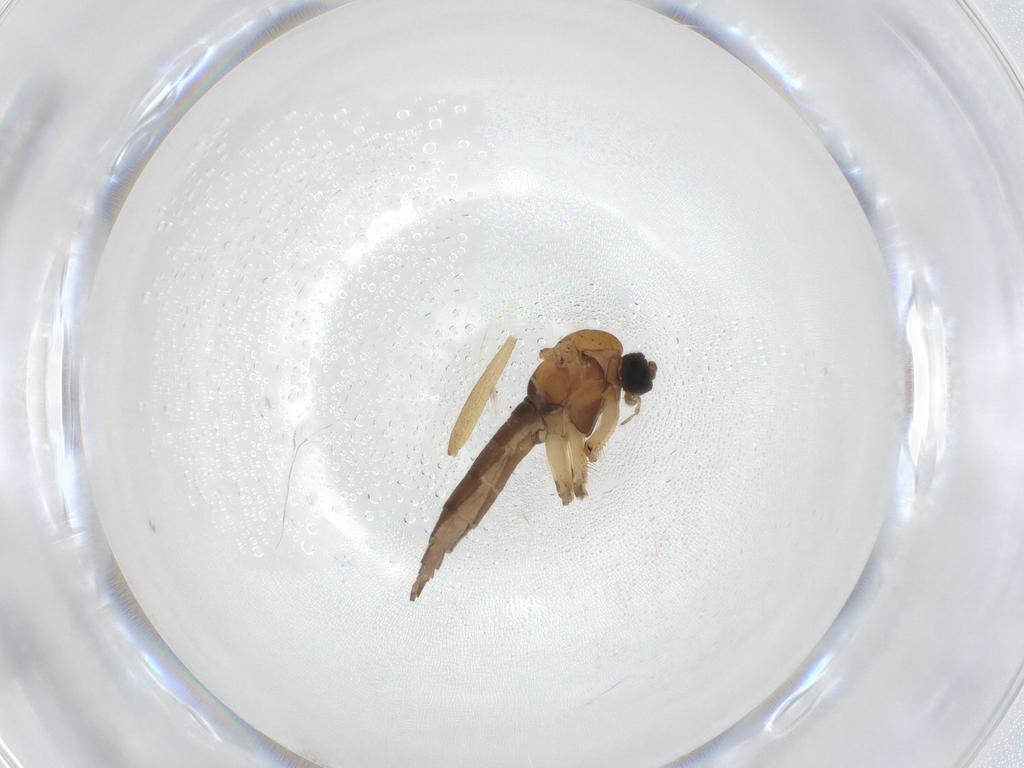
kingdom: Animalia
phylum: Arthropoda
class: Insecta
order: Diptera
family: Sciaridae
